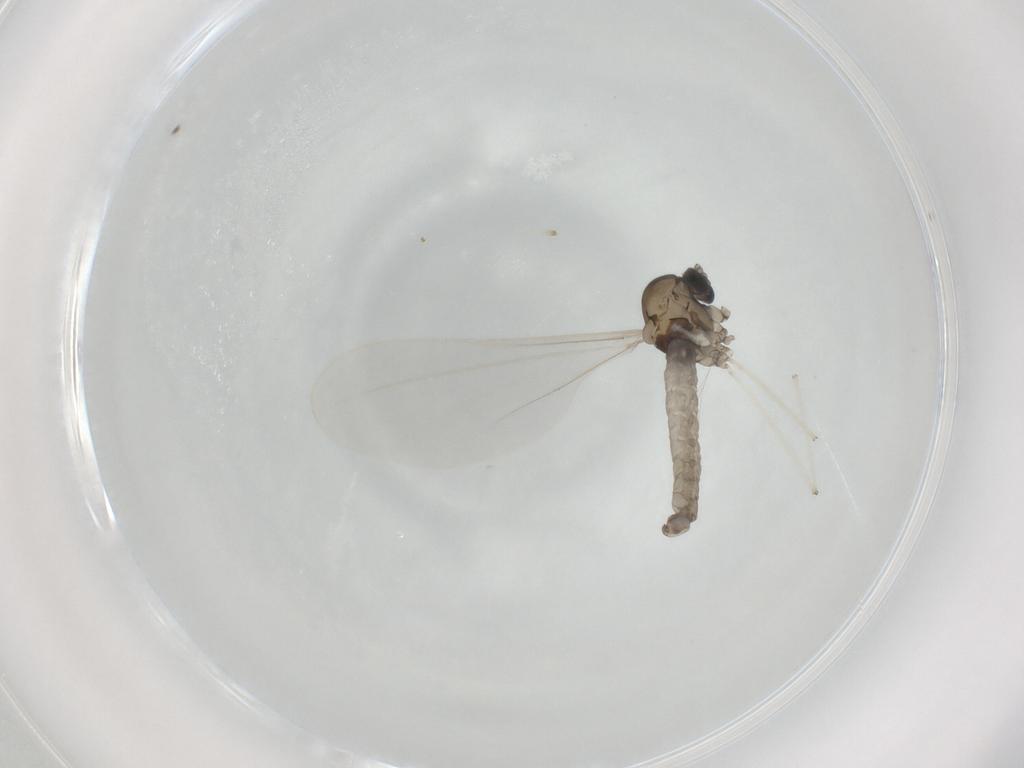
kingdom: Animalia
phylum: Arthropoda
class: Insecta
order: Diptera
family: Cecidomyiidae
